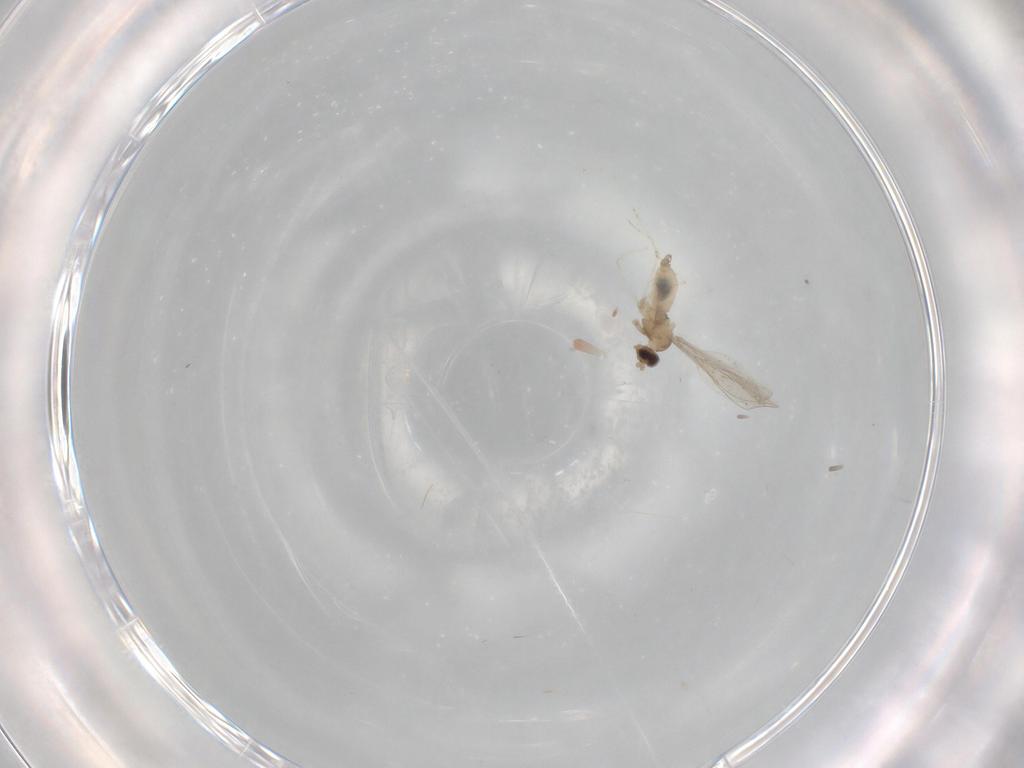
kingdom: Animalia
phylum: Arthropoda
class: Insecta
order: Diptera
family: Cecidomyiidae
